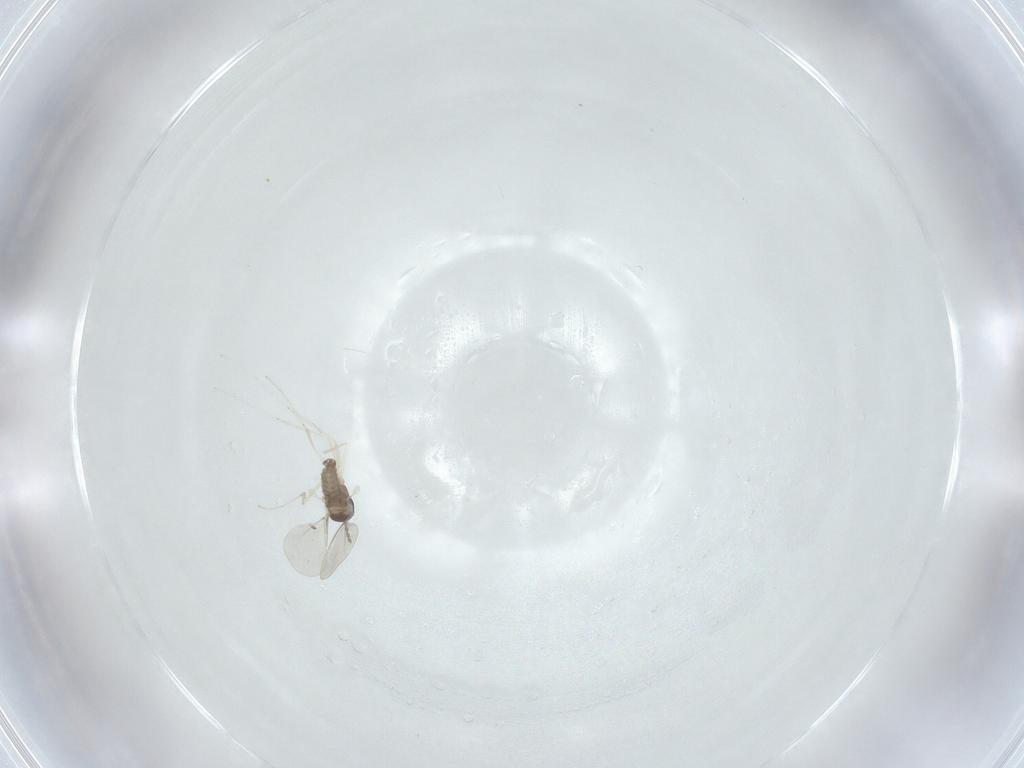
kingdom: Animalia
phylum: Arthropoda
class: Insecta
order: Diptera
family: Cecidomyiidae
